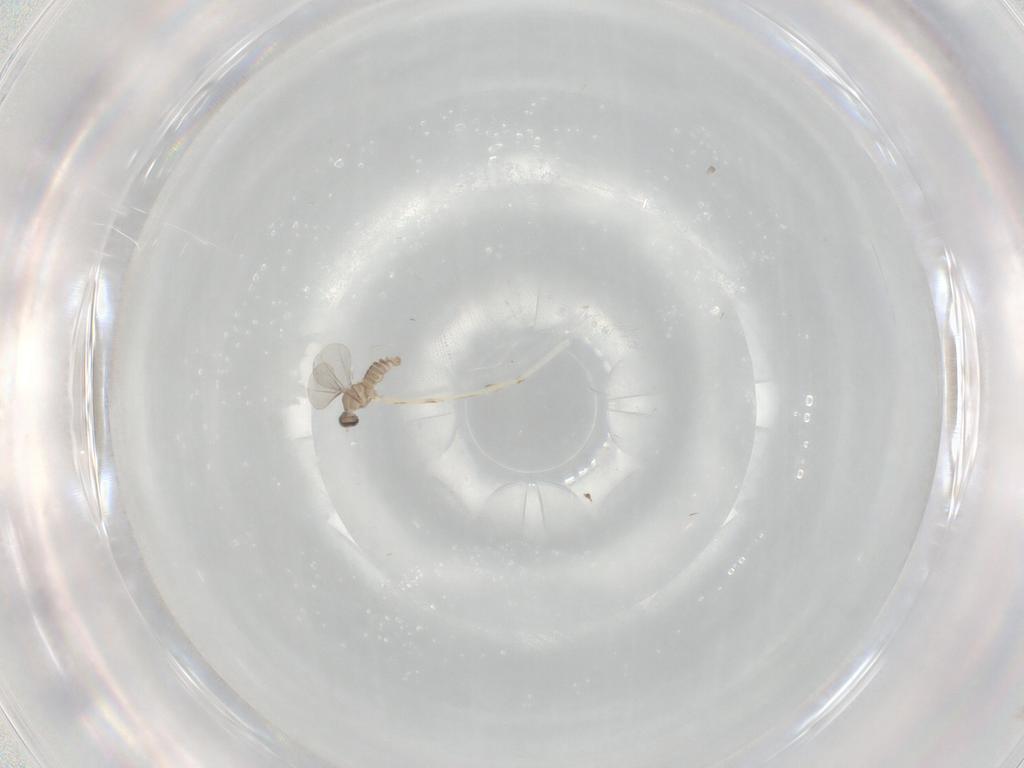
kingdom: Animalia
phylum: Arthropoda
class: Insecta
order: Diptera
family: Cecidomyiidae
